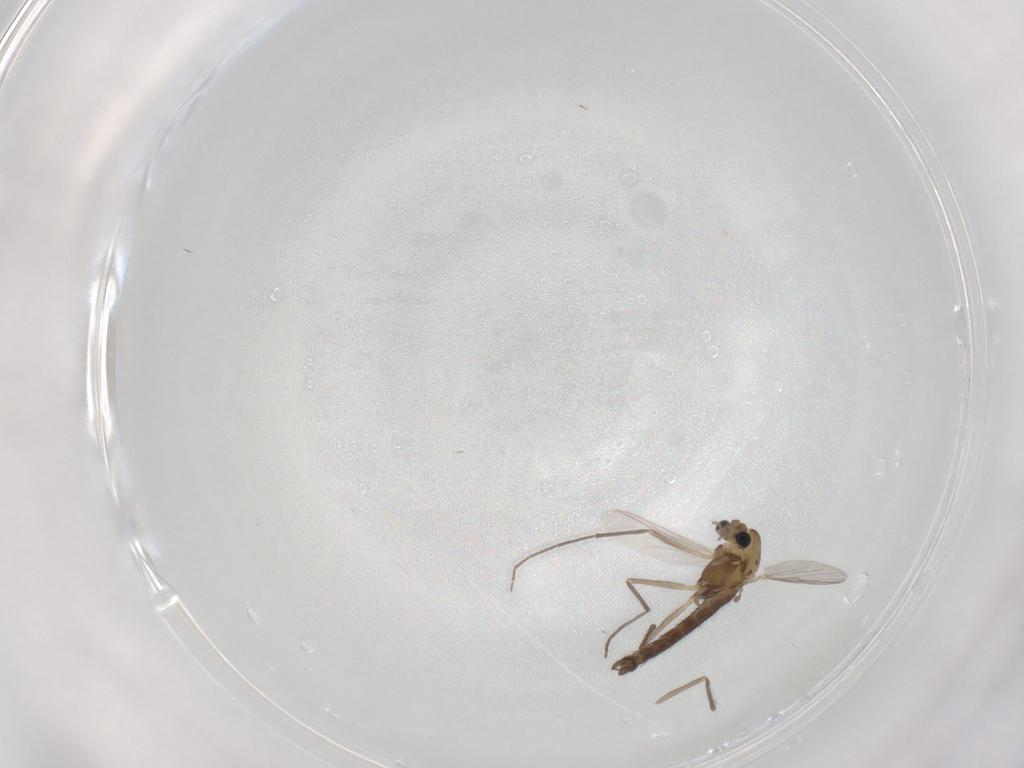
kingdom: Animalia
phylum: Arthropoda
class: Insecta
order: Diptera
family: Chironomidae
